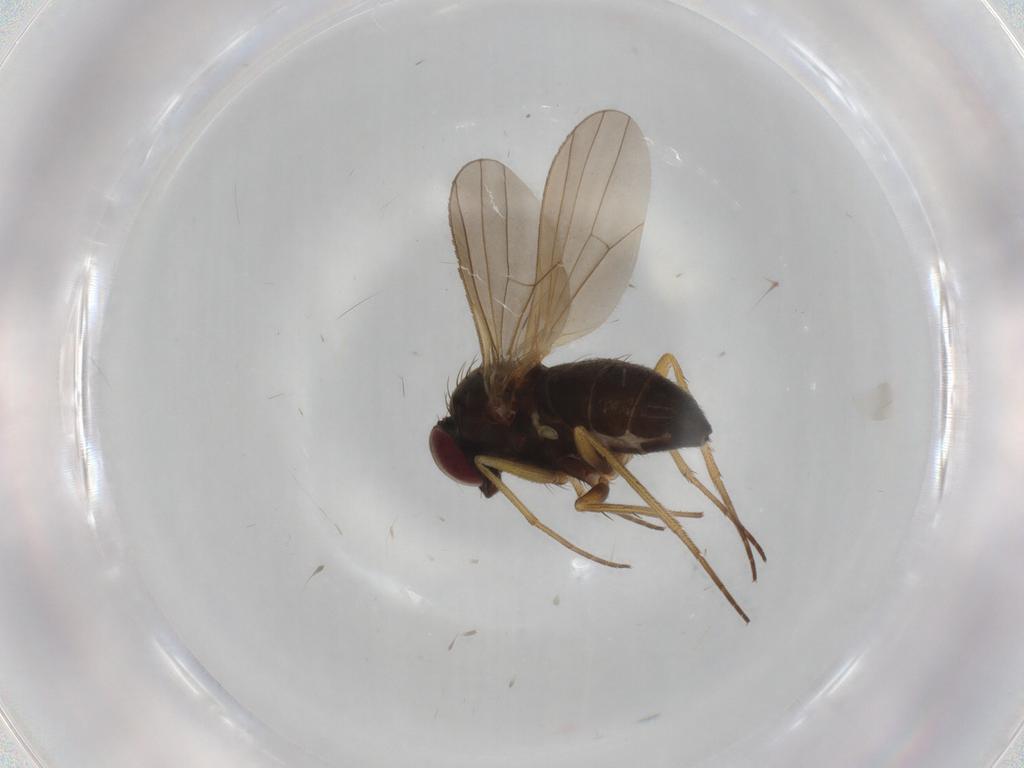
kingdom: Animalia
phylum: Arthropoda
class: Insecta
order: Diptera
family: Dolichopodidae
